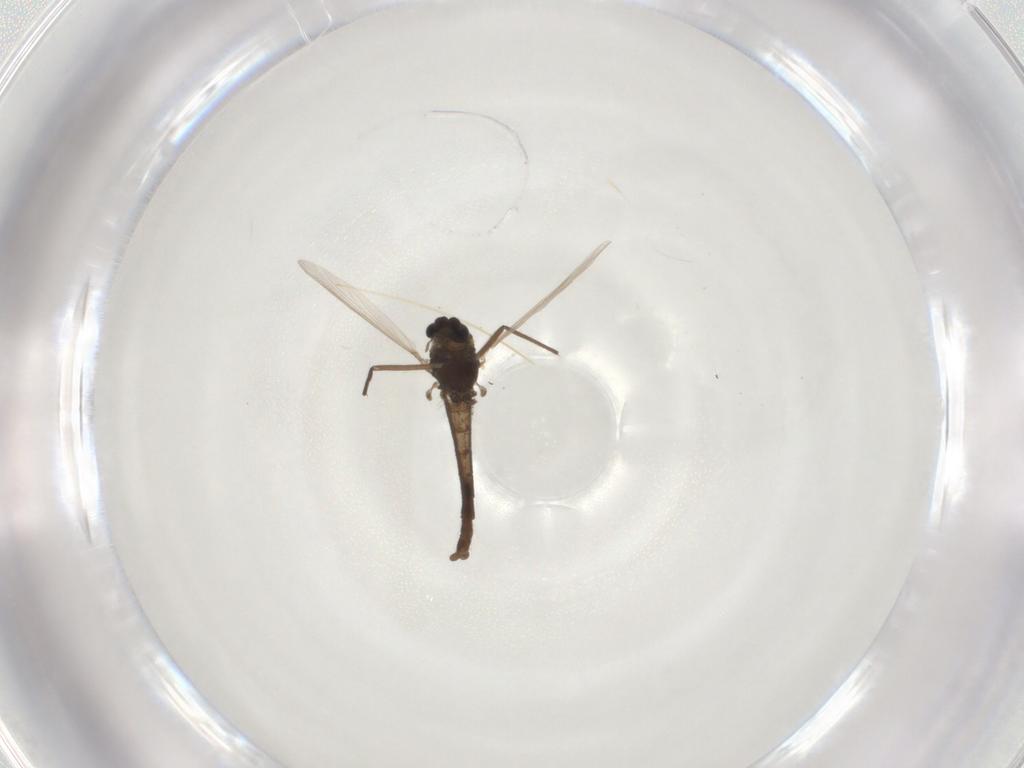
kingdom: Animalia
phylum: Arthropoda
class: Insecta
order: Diptera
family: Chironomidae
